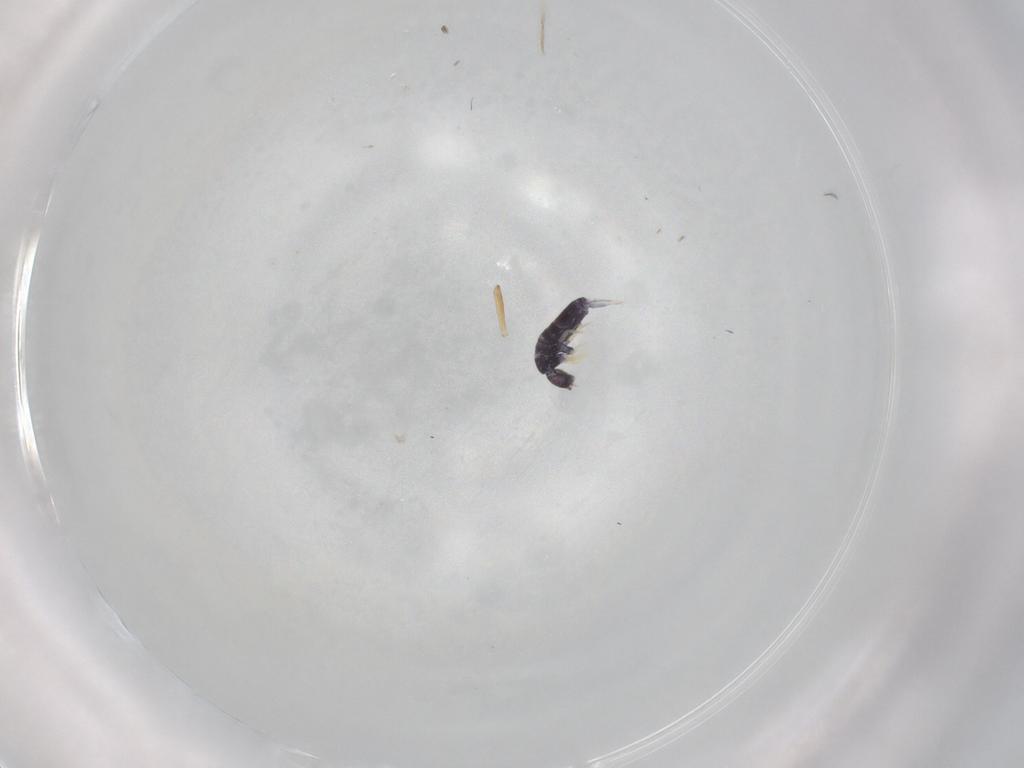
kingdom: Animalia
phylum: Arthropoda
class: Collembola
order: Entomobryomorpha
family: Entomobryidae
